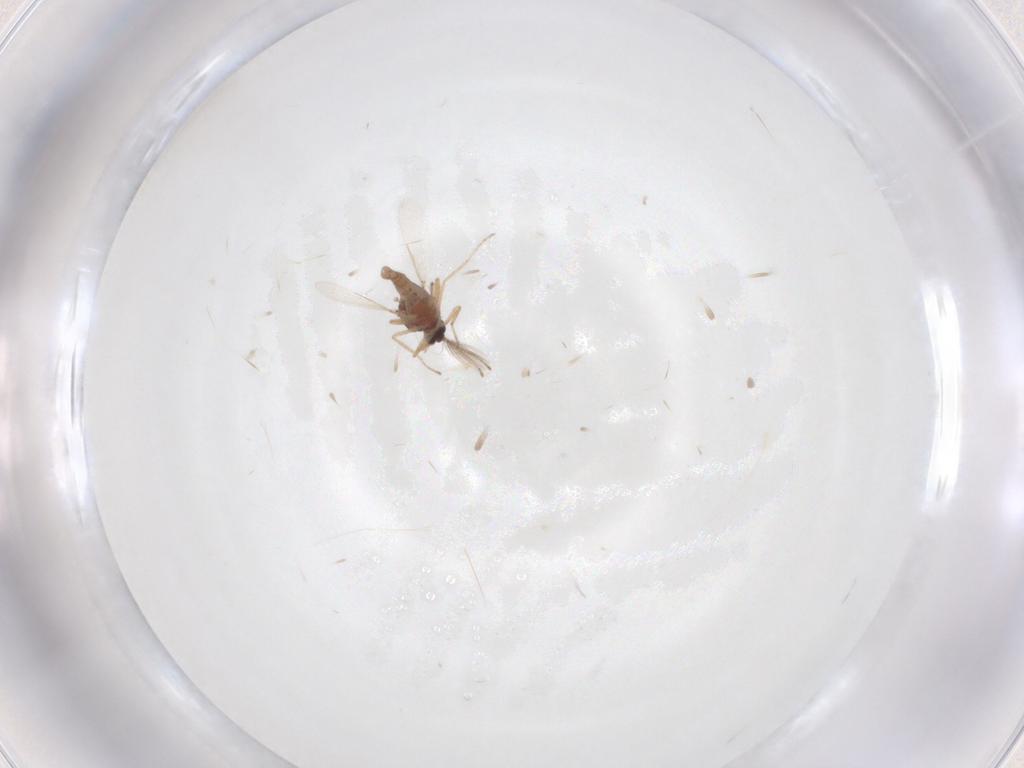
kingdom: Animalia
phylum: Arthropoda
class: Insecta
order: Diptera
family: Ceratopogonidae
